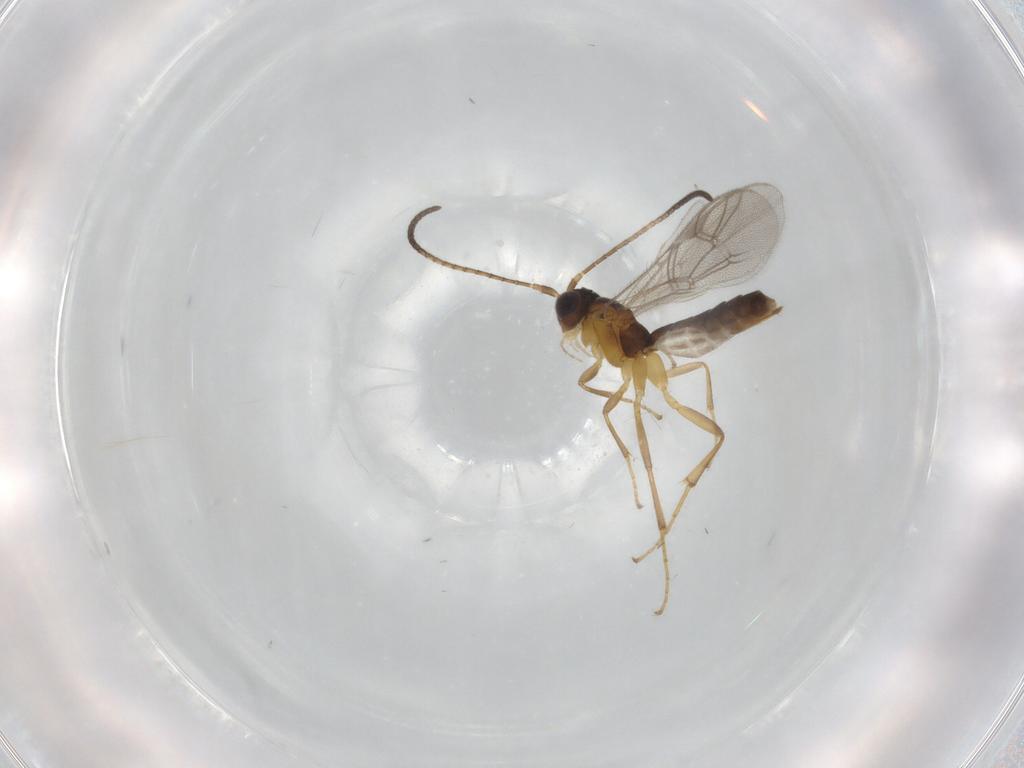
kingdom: Animalia
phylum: Arthropoda
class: Insecta
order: Hymenoptera
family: Ichneumonidae
